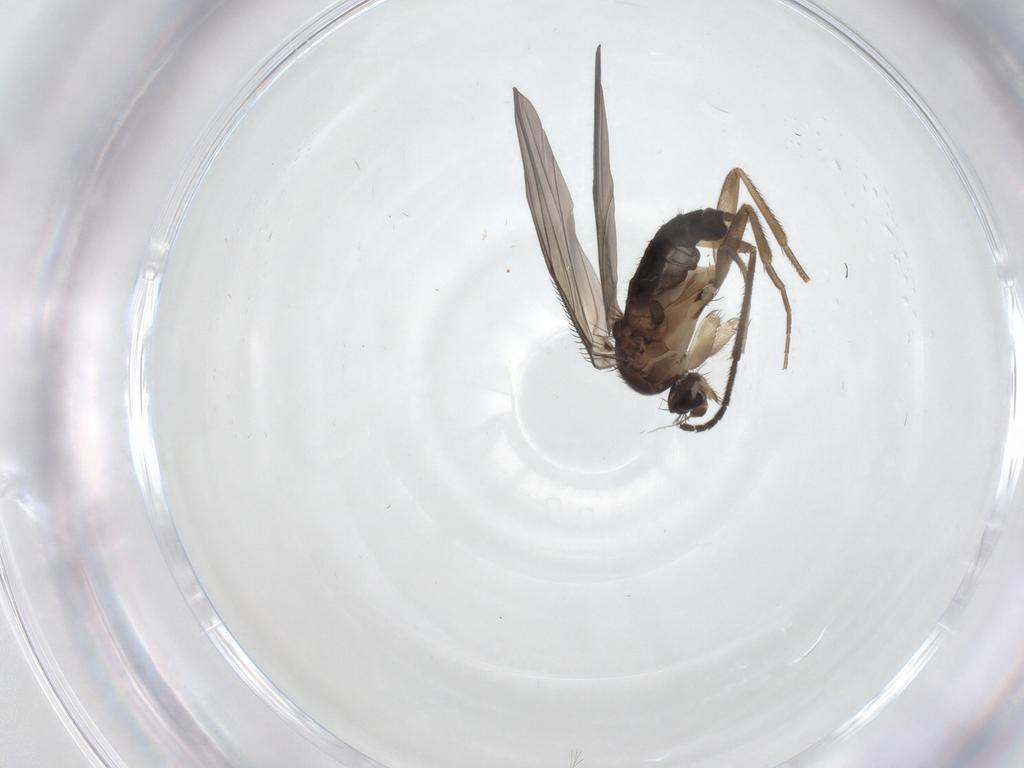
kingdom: Animalia
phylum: Arthropoda
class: Insecta
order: Diptera
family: Sciaridae
